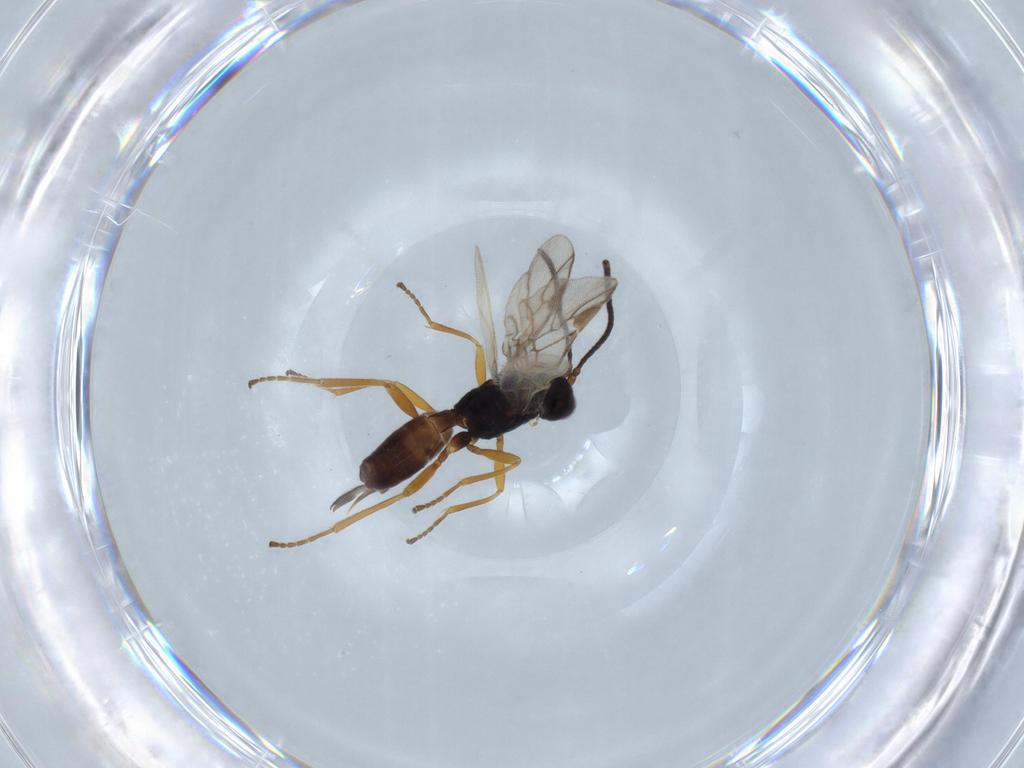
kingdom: Animalia
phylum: Arthropoda
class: Insecta
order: Hymenoptera
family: Braconidae
